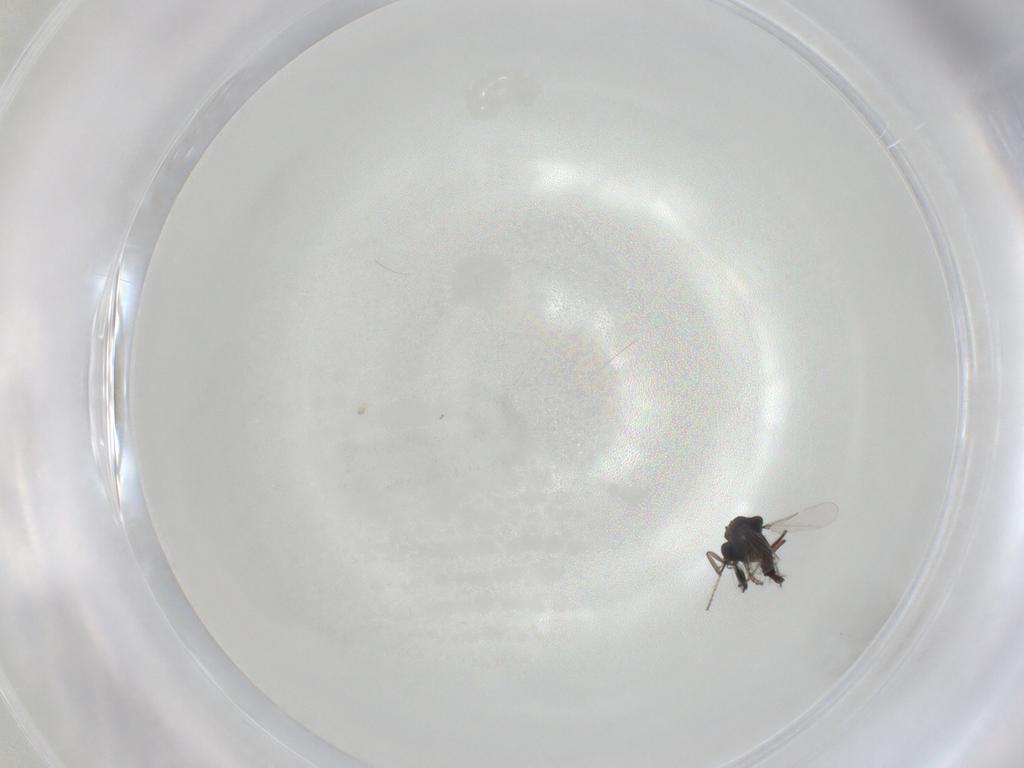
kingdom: Animalia
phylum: Arthropoda
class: Insecta
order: Diptera
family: Ceratopogonidae
